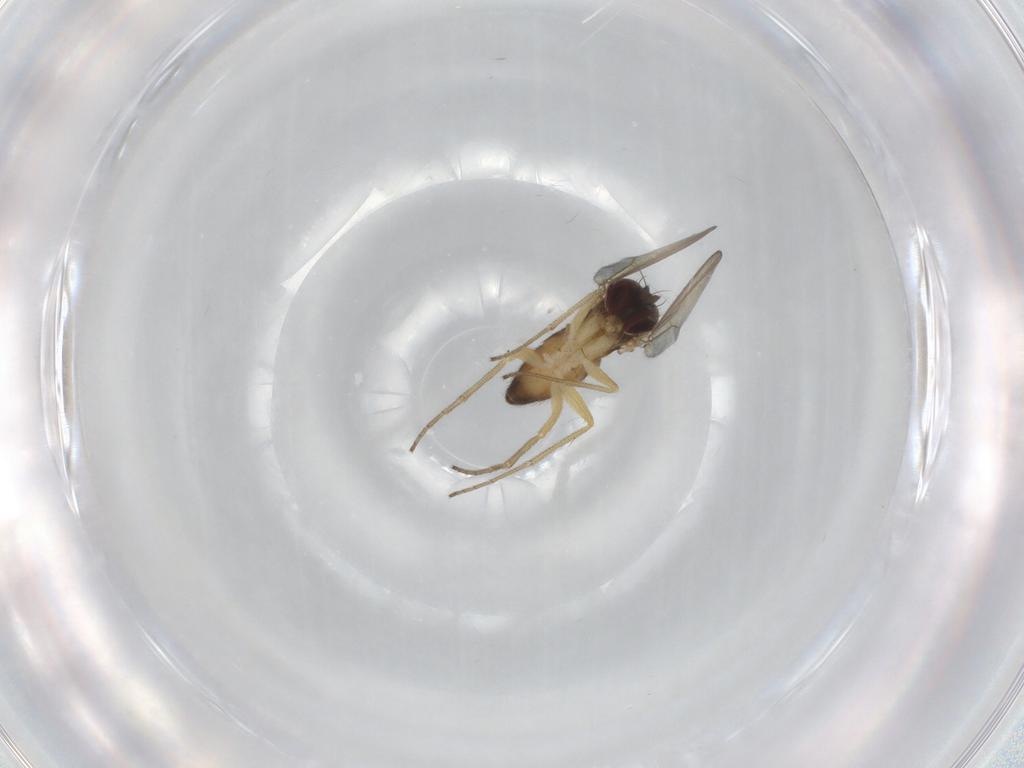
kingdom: Animalia
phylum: Arthropoda
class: Insecta
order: Diptera
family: Dolichopodidae
